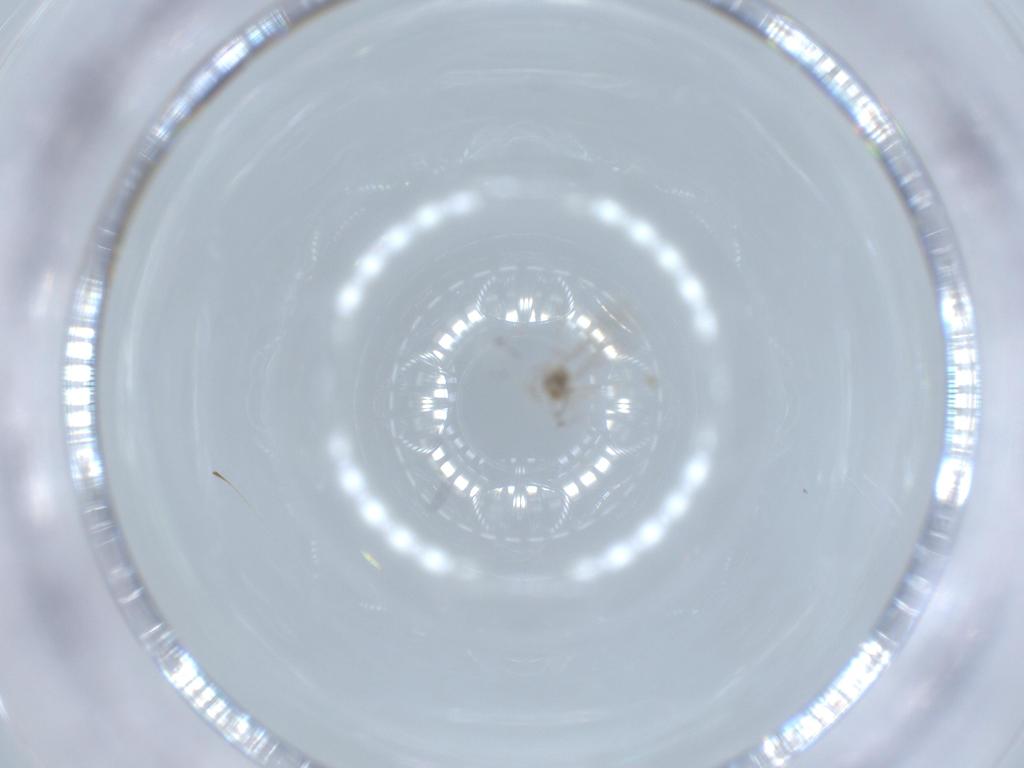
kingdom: Animalia
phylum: Arthropoda
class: Insecta
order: Diptera
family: Cecidomyiidae
